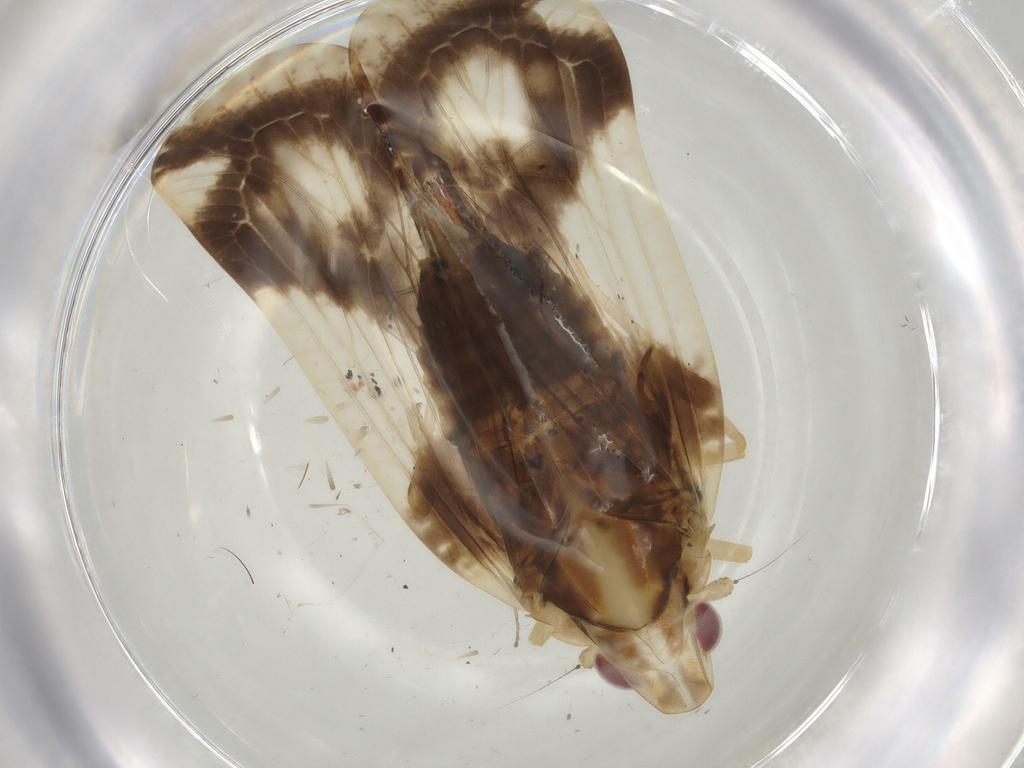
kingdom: Animalia
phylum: Arthropoda
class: Insecta
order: Hemiptera
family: Tropiduchidae
